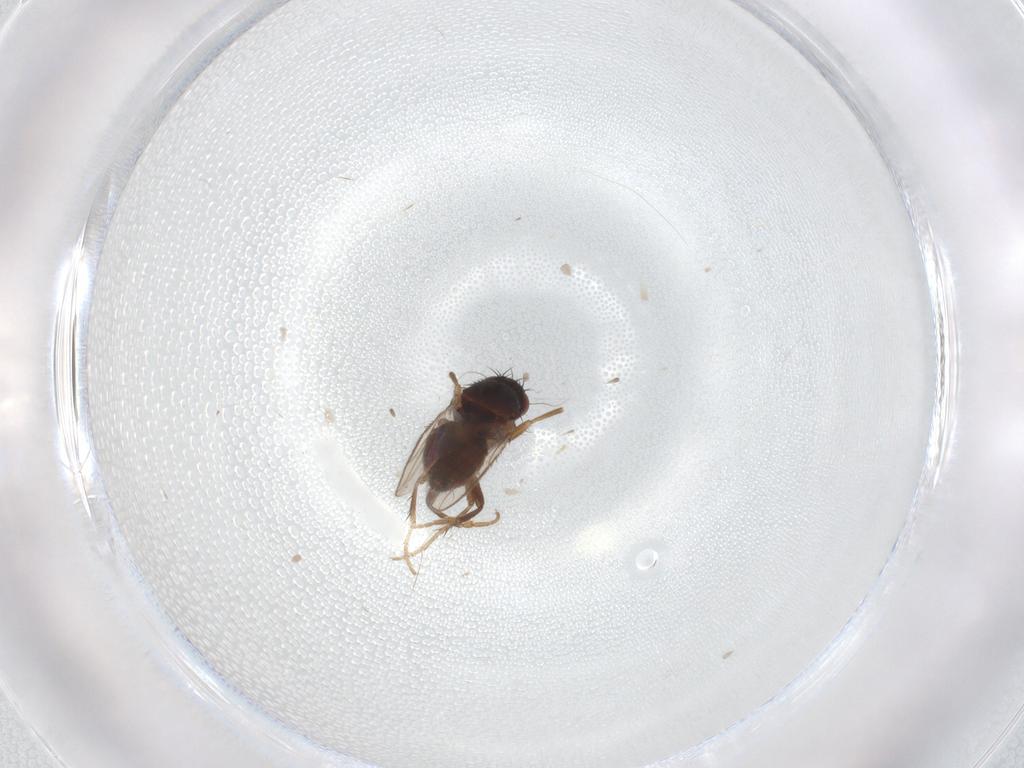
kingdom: Animalia
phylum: Arthropoda
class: Insecta
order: Diptera
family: Sphaeroceridae
